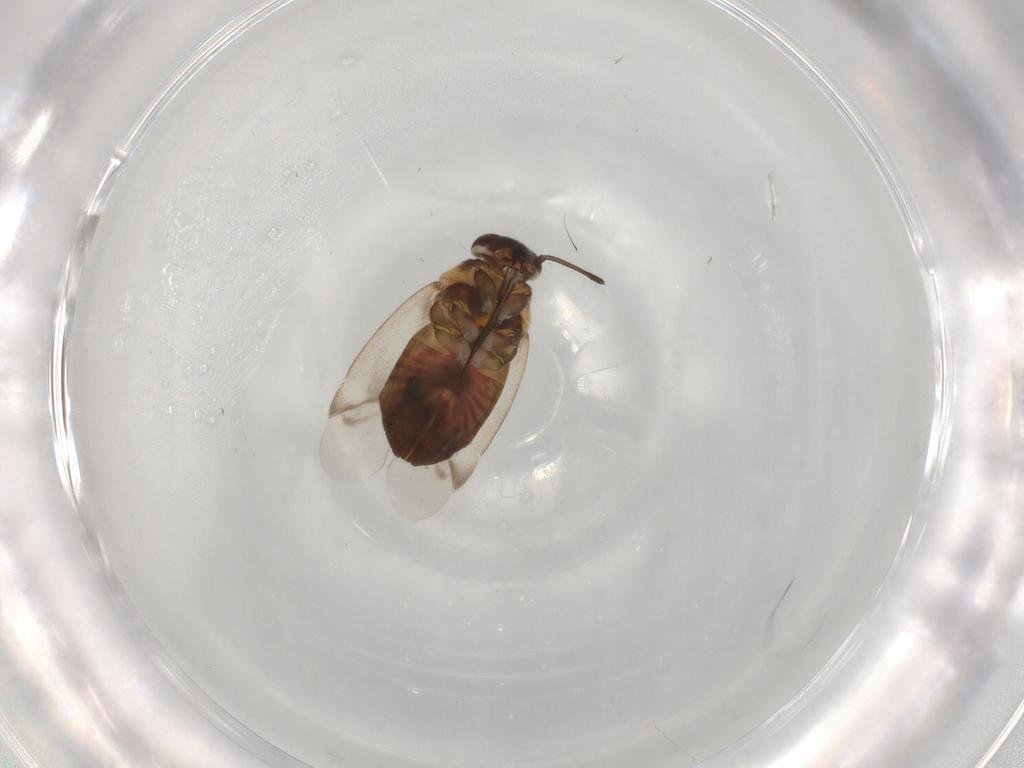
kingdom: Animalia
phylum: Arthropoda
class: Insecta
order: Hemiptera
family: Miridae
